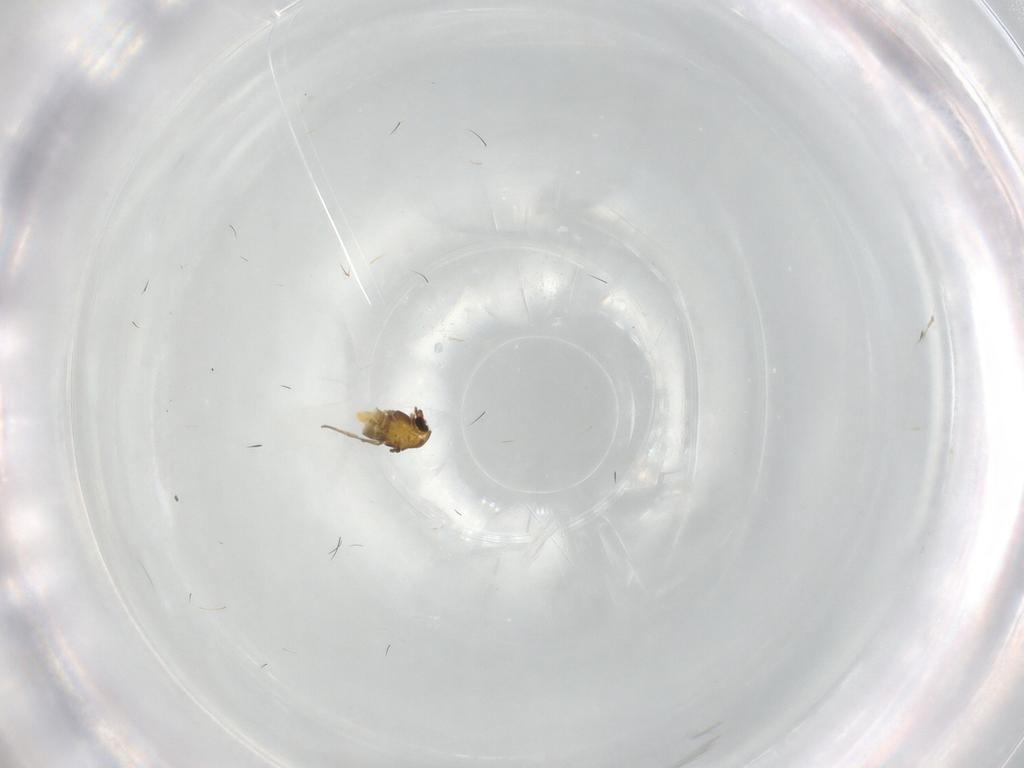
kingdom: Animalia
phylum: Arthropoda
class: Insecta
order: Diptera
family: Chironomidae
